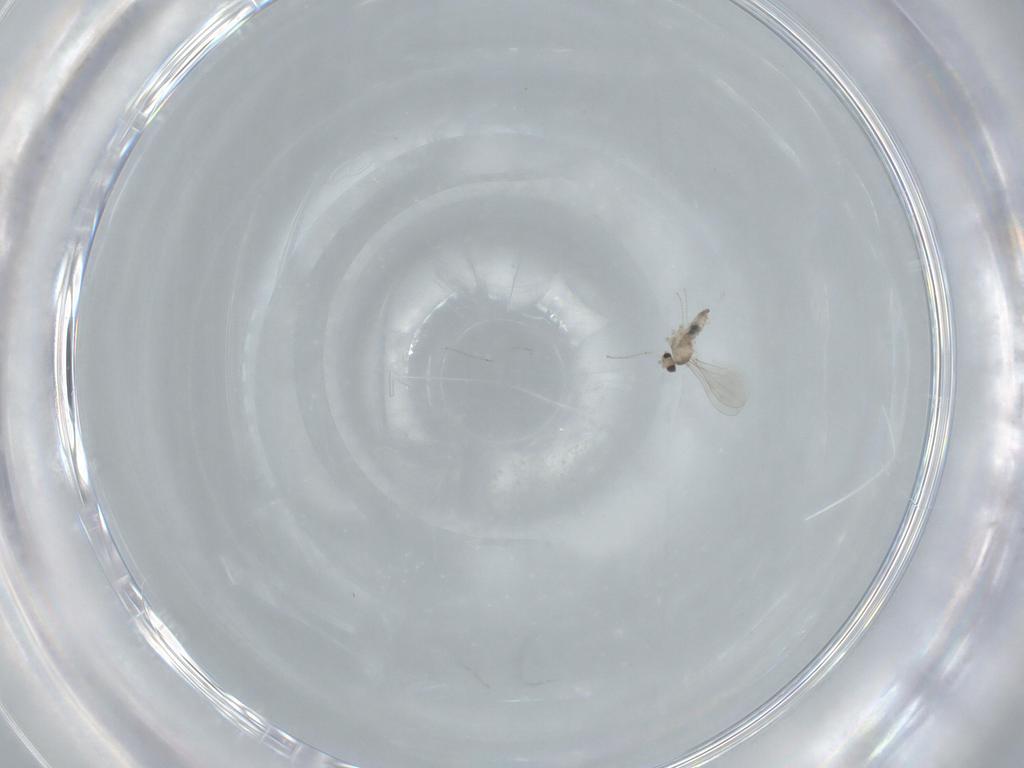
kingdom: Animalia
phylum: Arthropoda
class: Insecta
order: Diptera
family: Cecidomyiidae
